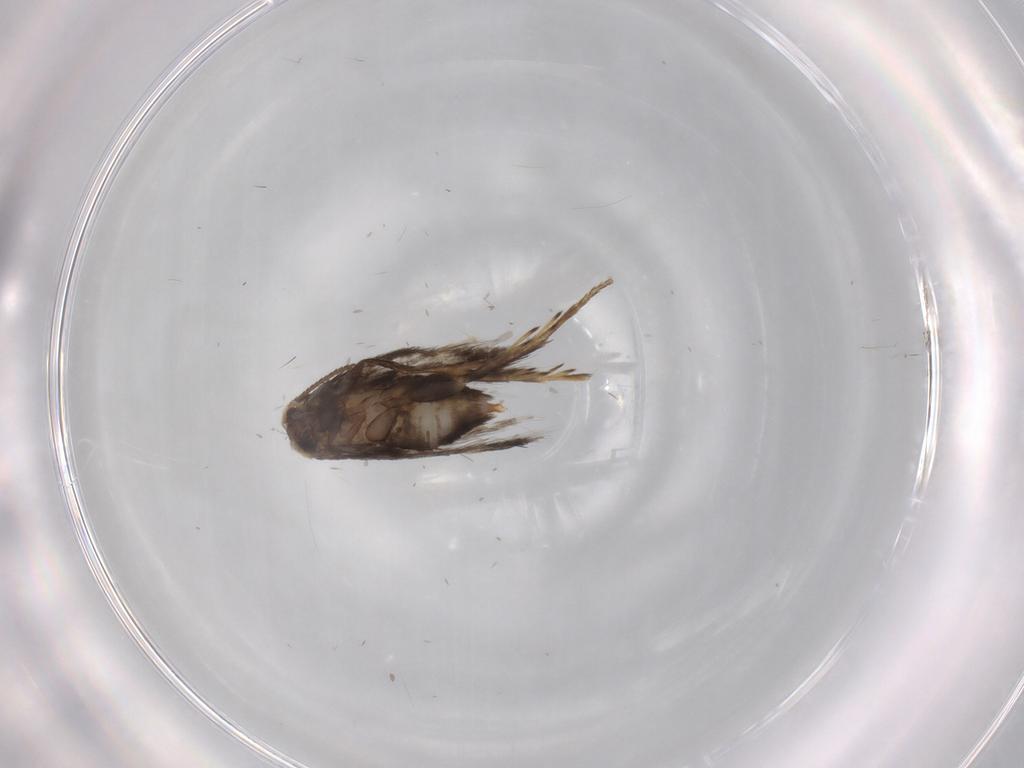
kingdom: Animalia
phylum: Arthropoda
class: Insecta
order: Lepidoptera
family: Nepticulidae
